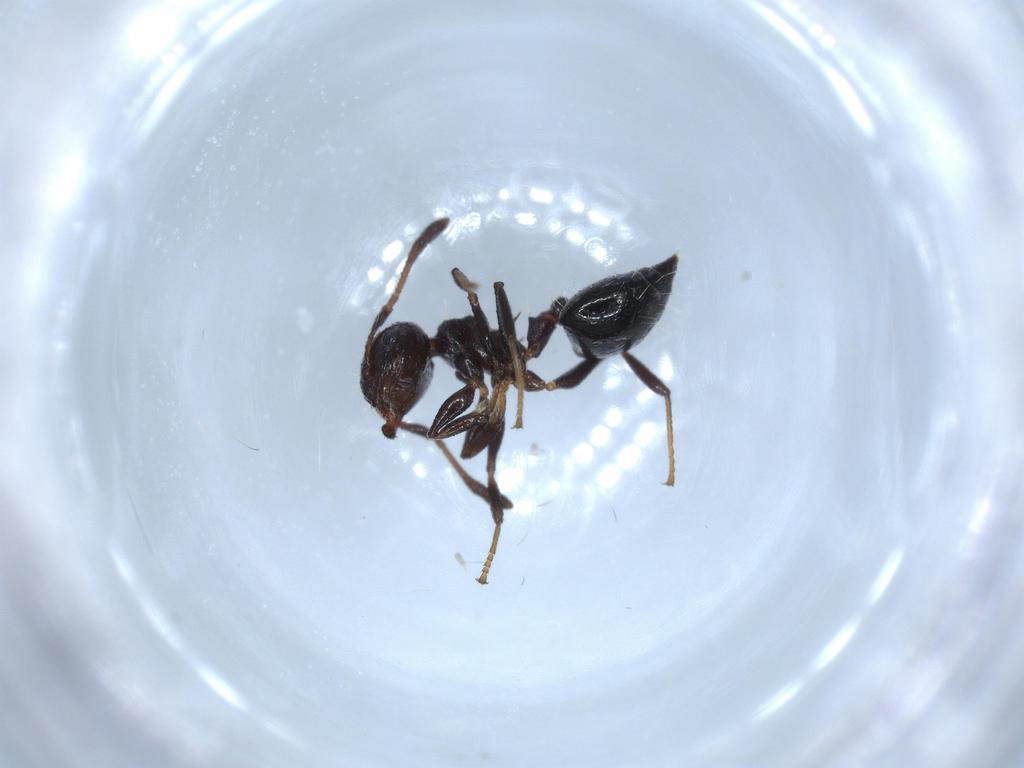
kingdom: Animalia
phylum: Arthropoda
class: Insecta
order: Hymenoptera
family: Formicidae
